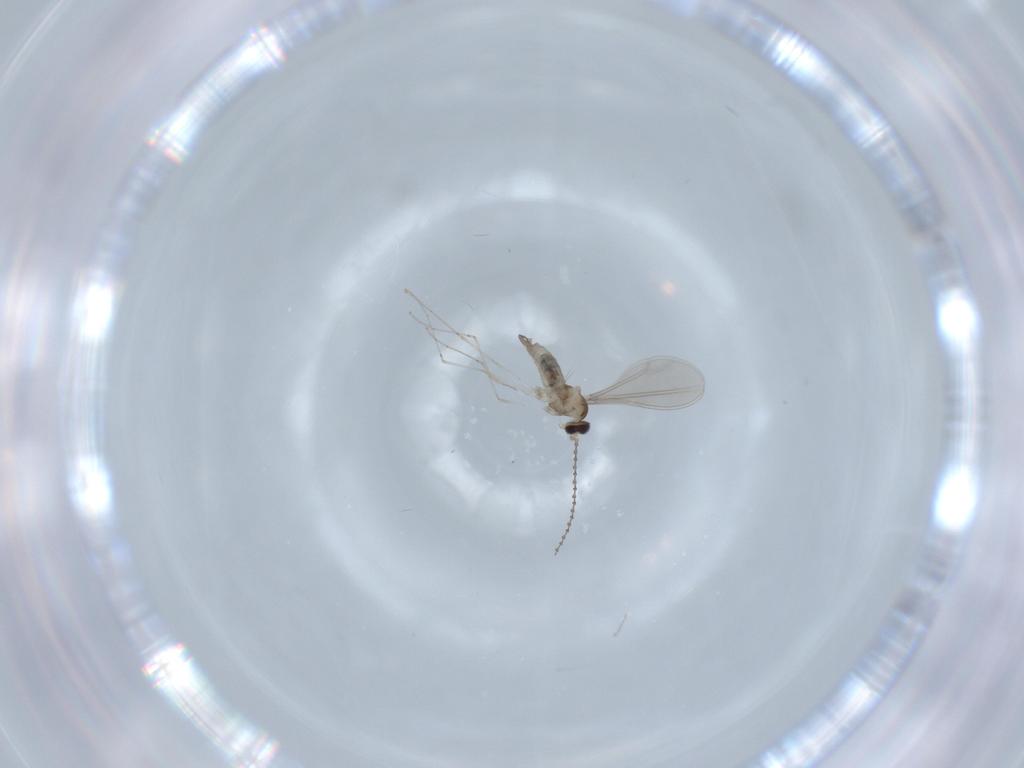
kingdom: Animalia
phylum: Arthropoda
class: Insecta
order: Diptera
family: Cecidomyiidae
